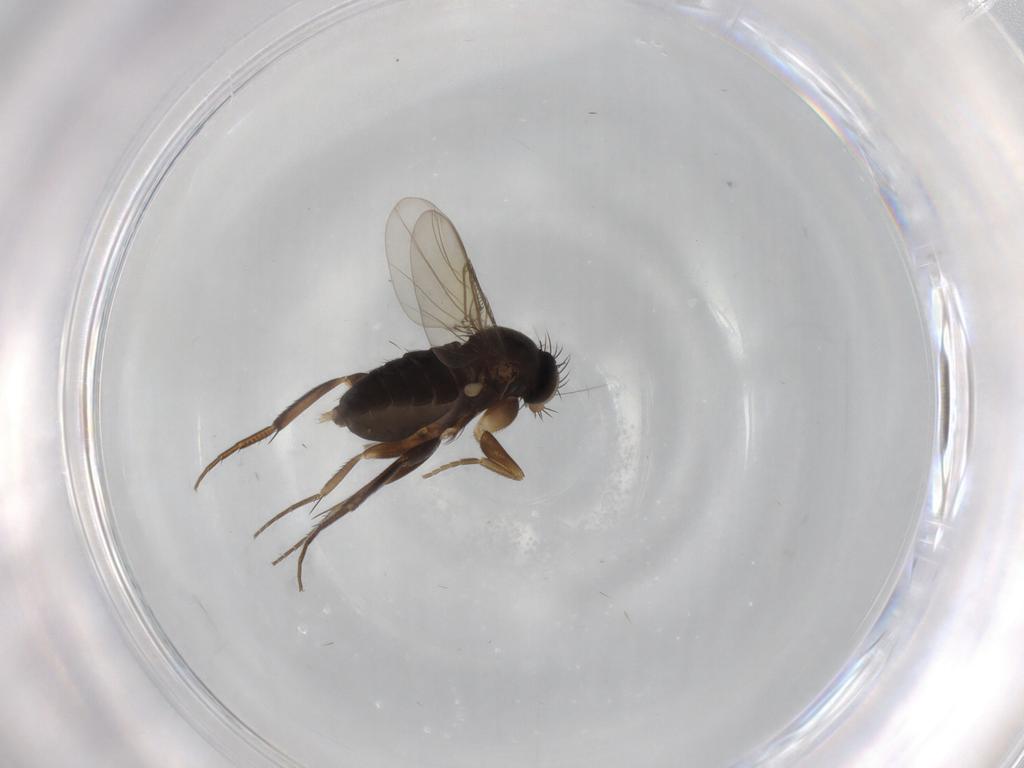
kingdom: Animalia
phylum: Arthropoda
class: Insecta
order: Diptera
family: Phoridae
